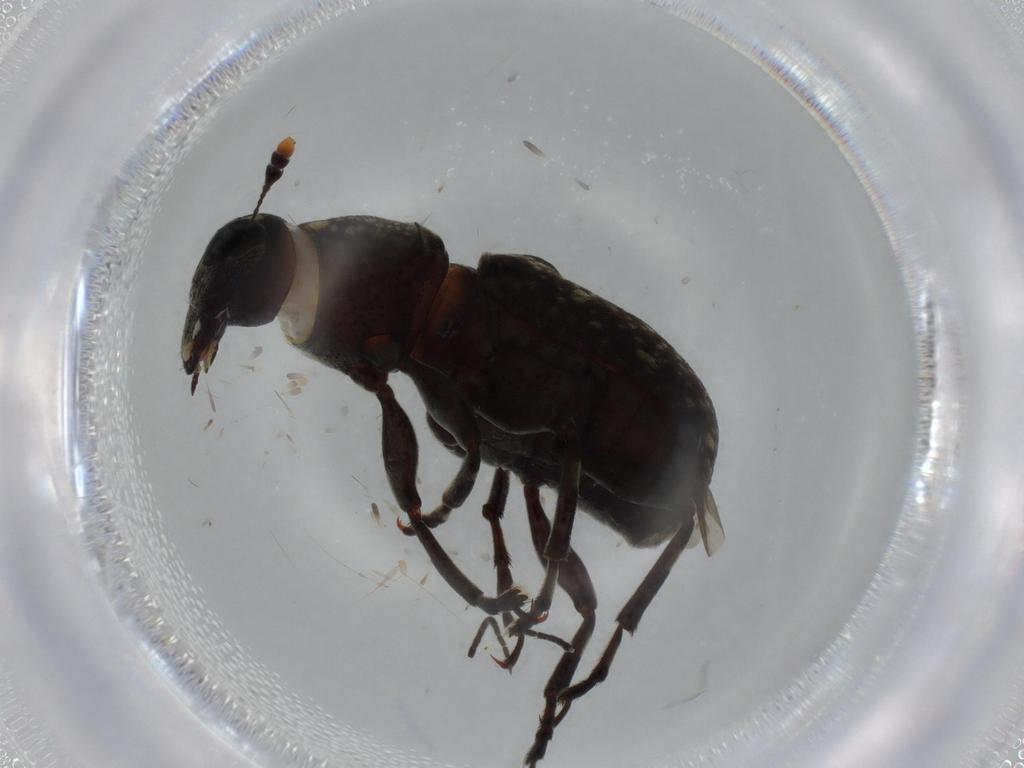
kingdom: Animalia
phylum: Arthropoda
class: Insecta
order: Coleoptera
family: Anthribidae
